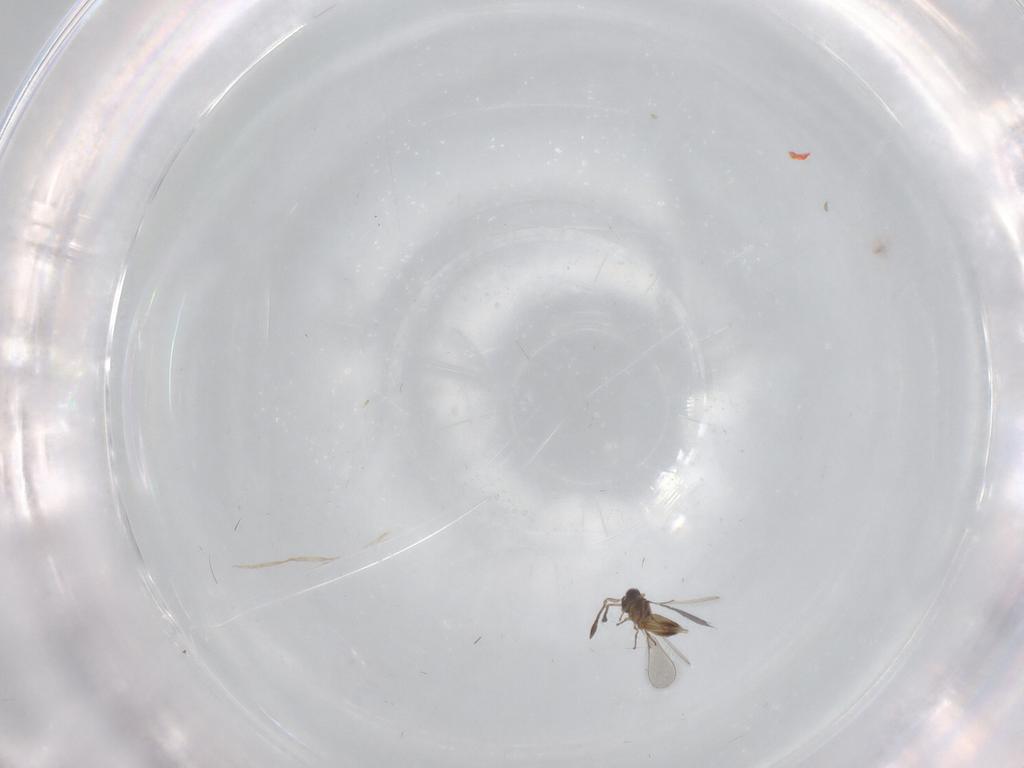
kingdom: Animalia
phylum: Arthropoda
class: Insecta
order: Hymenoptera
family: Mymaridae
